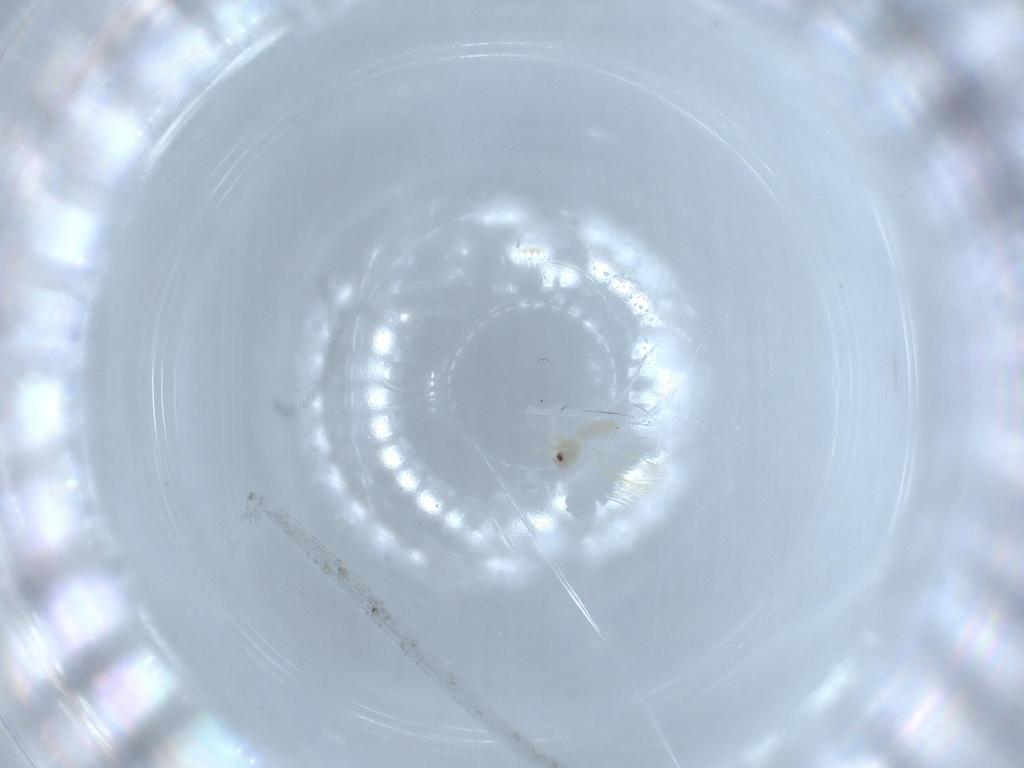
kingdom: Animalia
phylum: Arthropoda
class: Insecta
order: Hemiptera
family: Aleyrodidae
